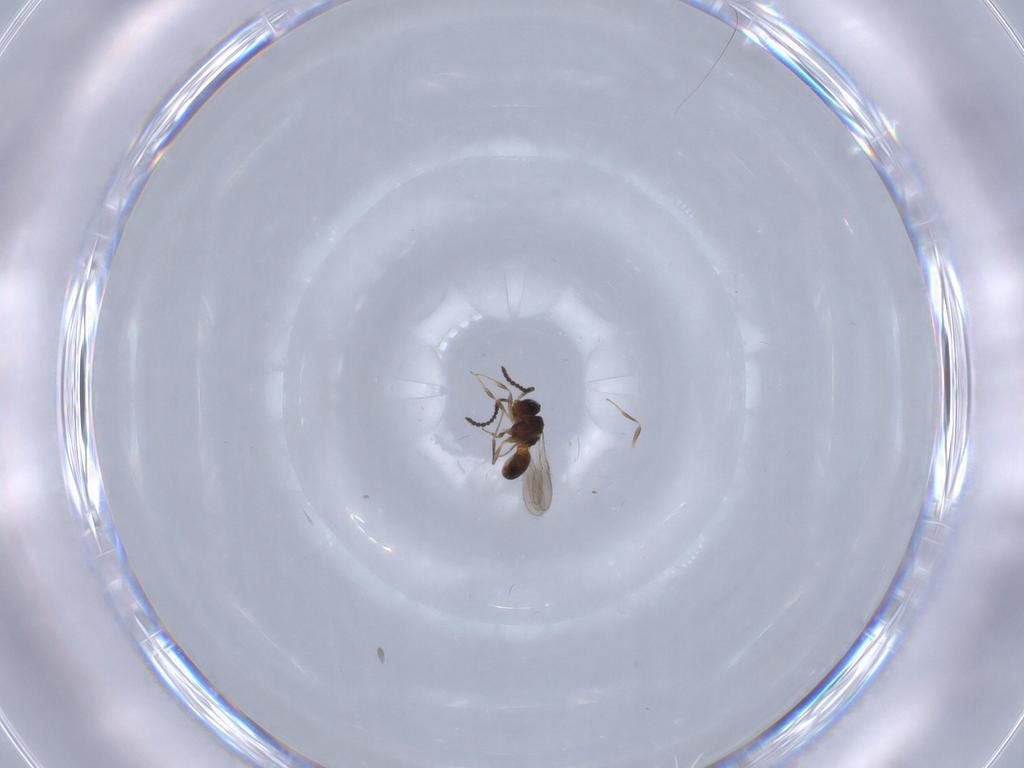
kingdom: Animalia
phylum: Arthropoda
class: Insecta
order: Hymenoptera
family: Scelionidae
